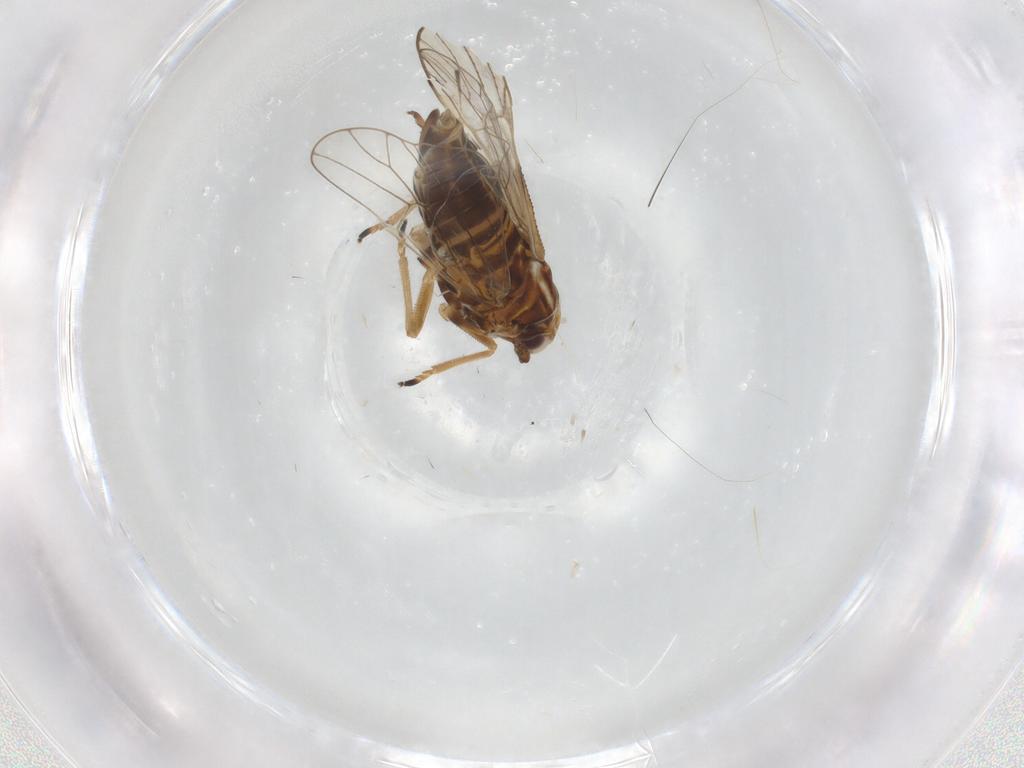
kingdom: Animalia
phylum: Arthropoda
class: Insecta
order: Hemiptera
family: Delphacidae
